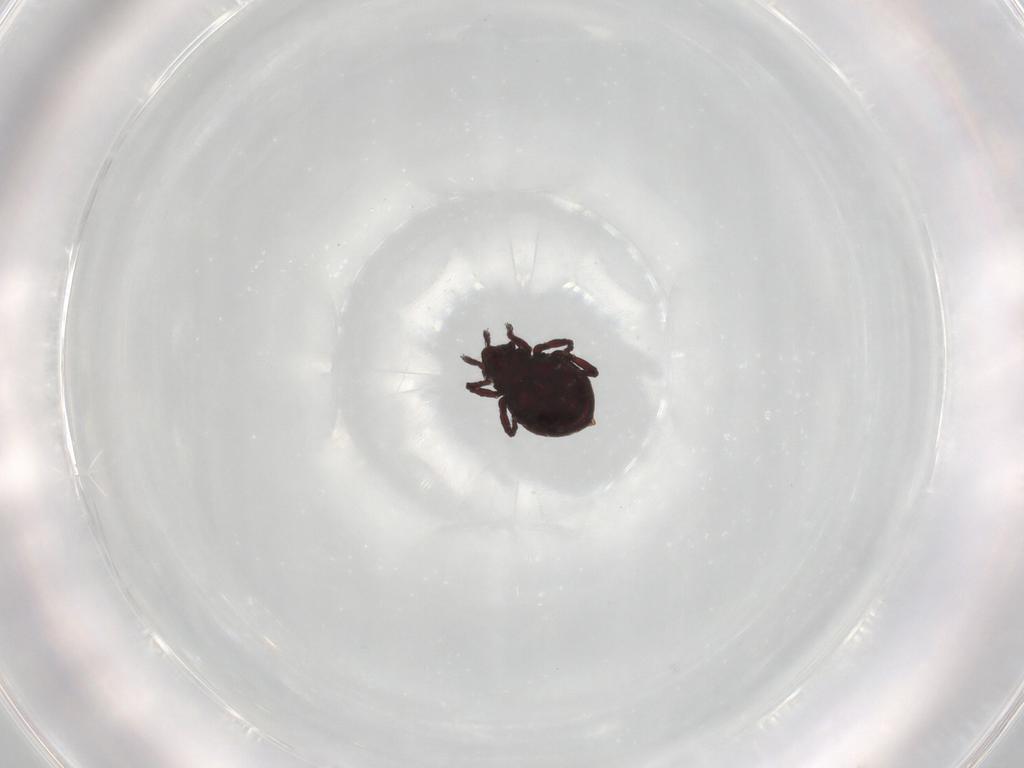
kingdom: Animalia
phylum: Arthropoda
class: Arachnida
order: Sarcoptiformes
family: Neoliodidae
